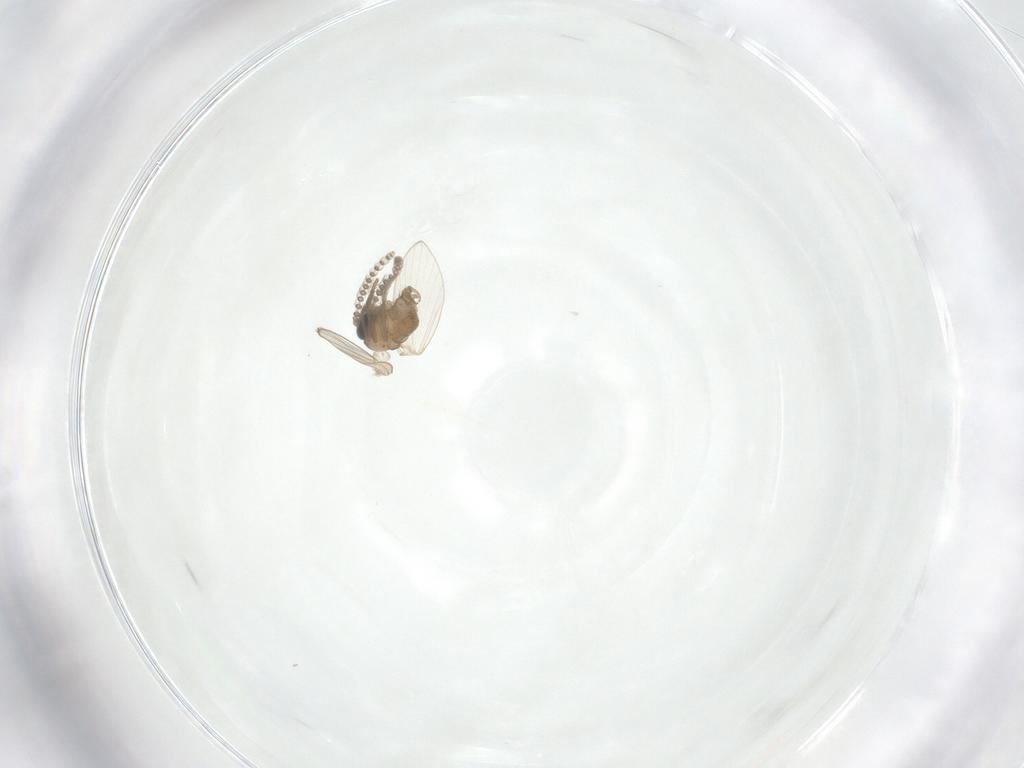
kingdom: Animalia
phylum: Arthropoda
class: Insecta
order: Diptera
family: Psychodidae
